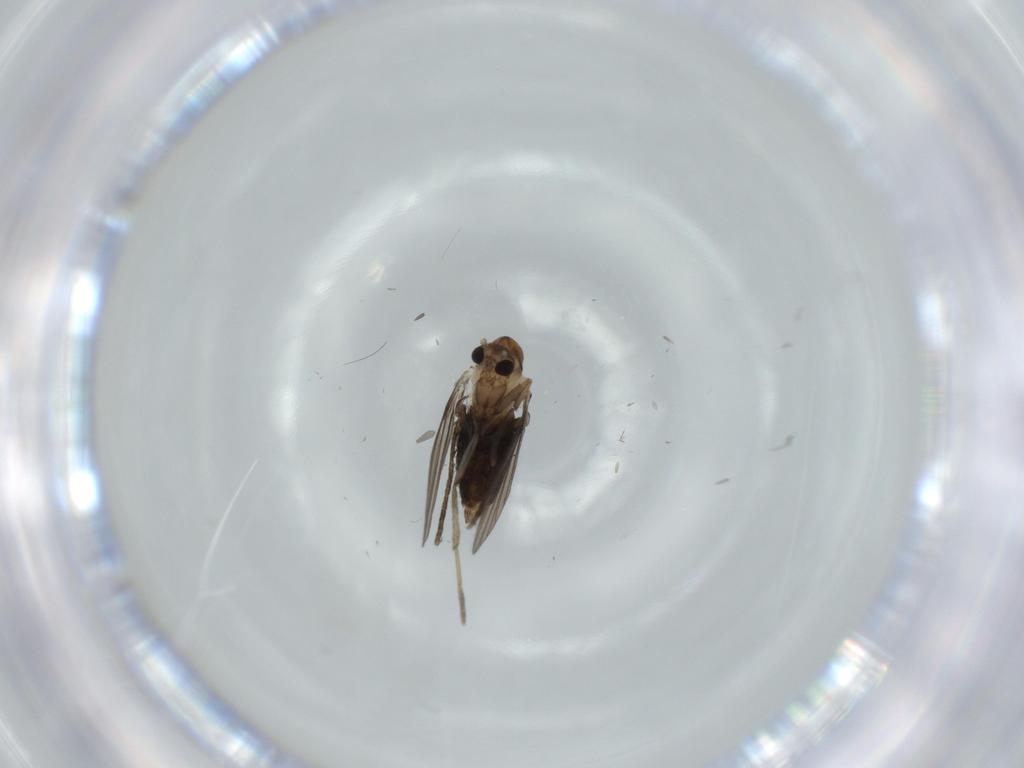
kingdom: Animalia
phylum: Arthropoda
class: Insecta
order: Diptera
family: Psychodidae
